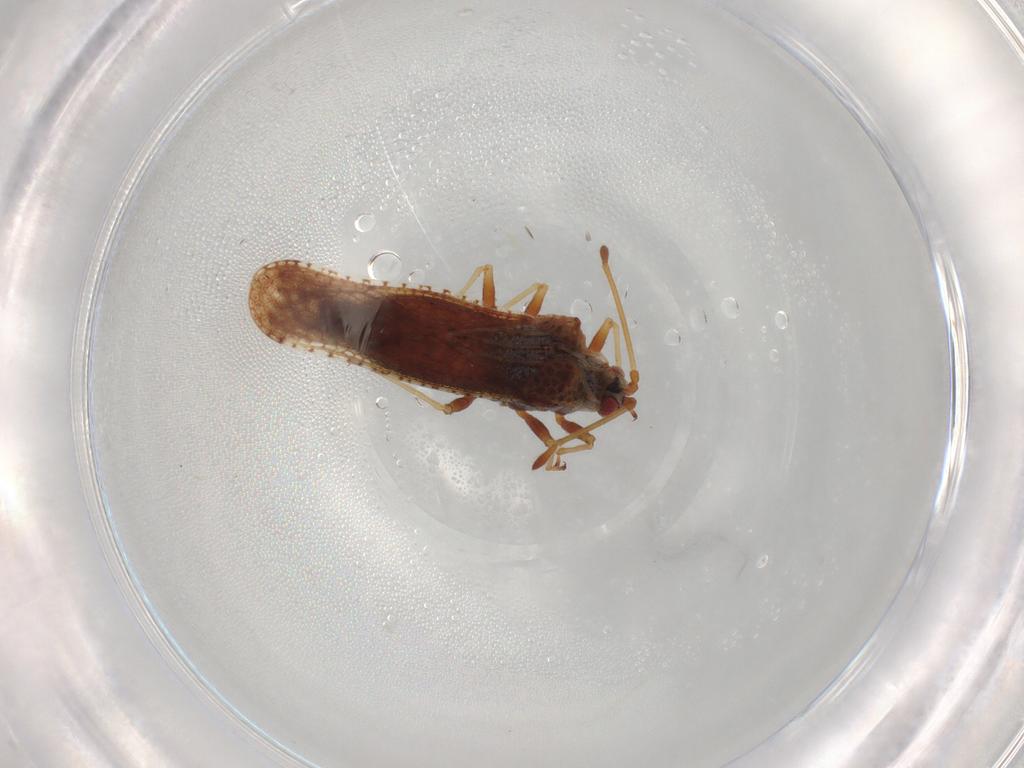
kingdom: Animalia
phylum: Arthropoda
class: Insecta
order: Hemiptera
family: Tingidae
